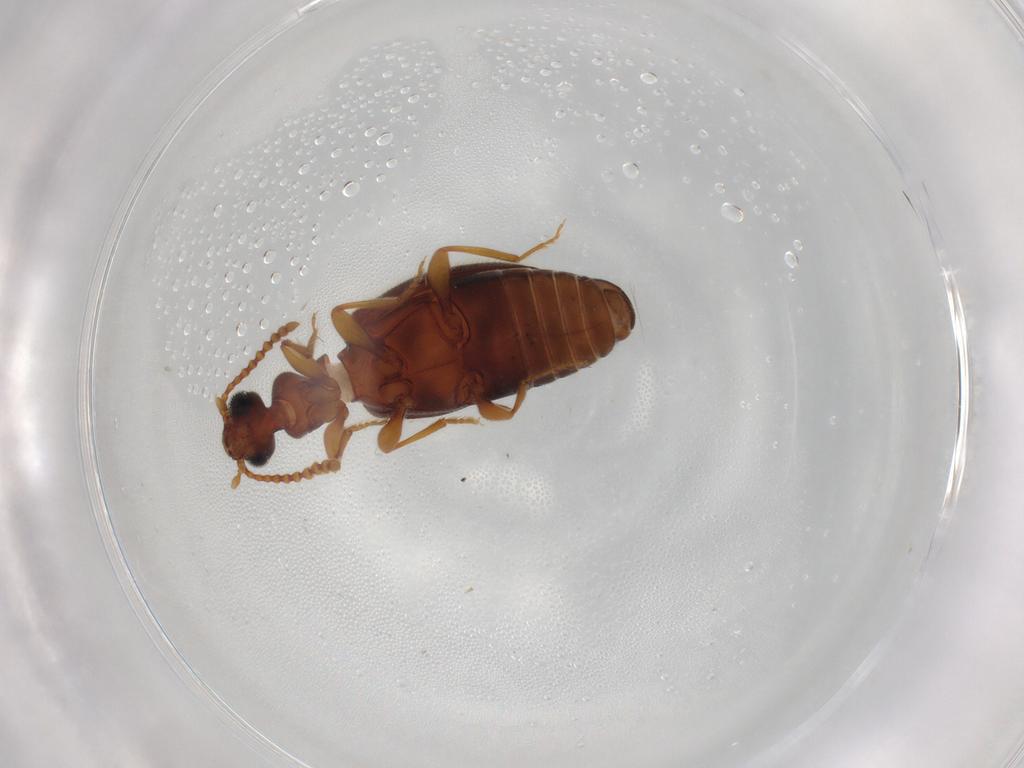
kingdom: Animalia
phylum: Arthropoda
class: Insecta
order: Coleoptera
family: Anthicidae
